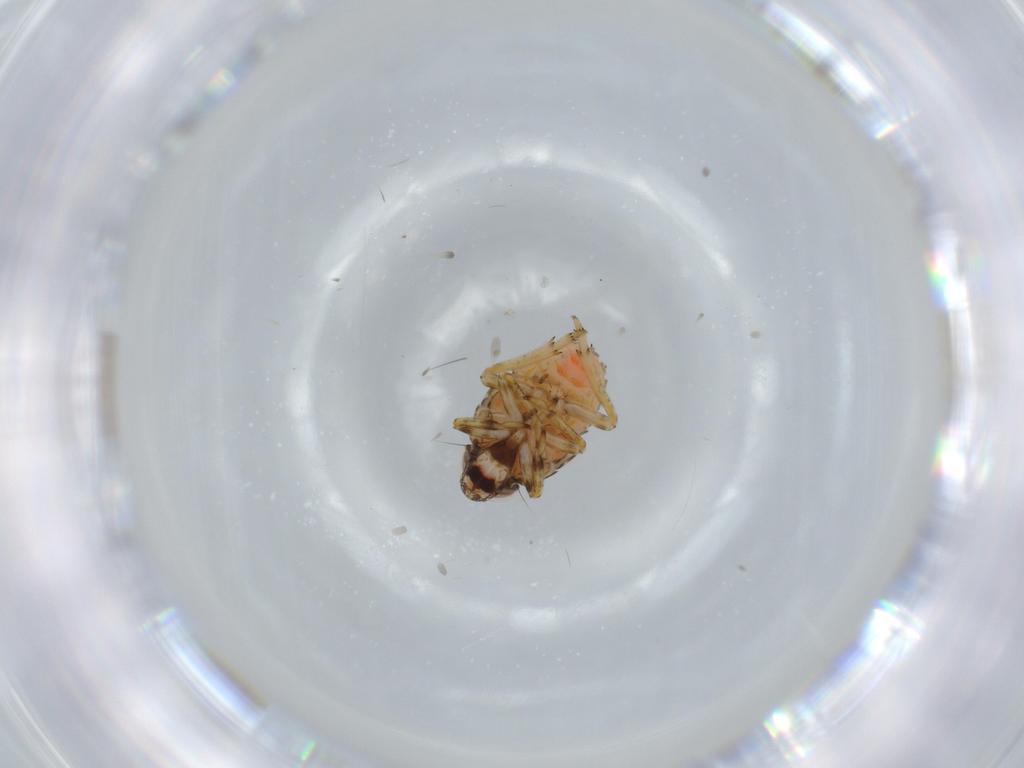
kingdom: Animalia
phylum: Arthropoda
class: Insecta
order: Hemiptera
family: Issidae
